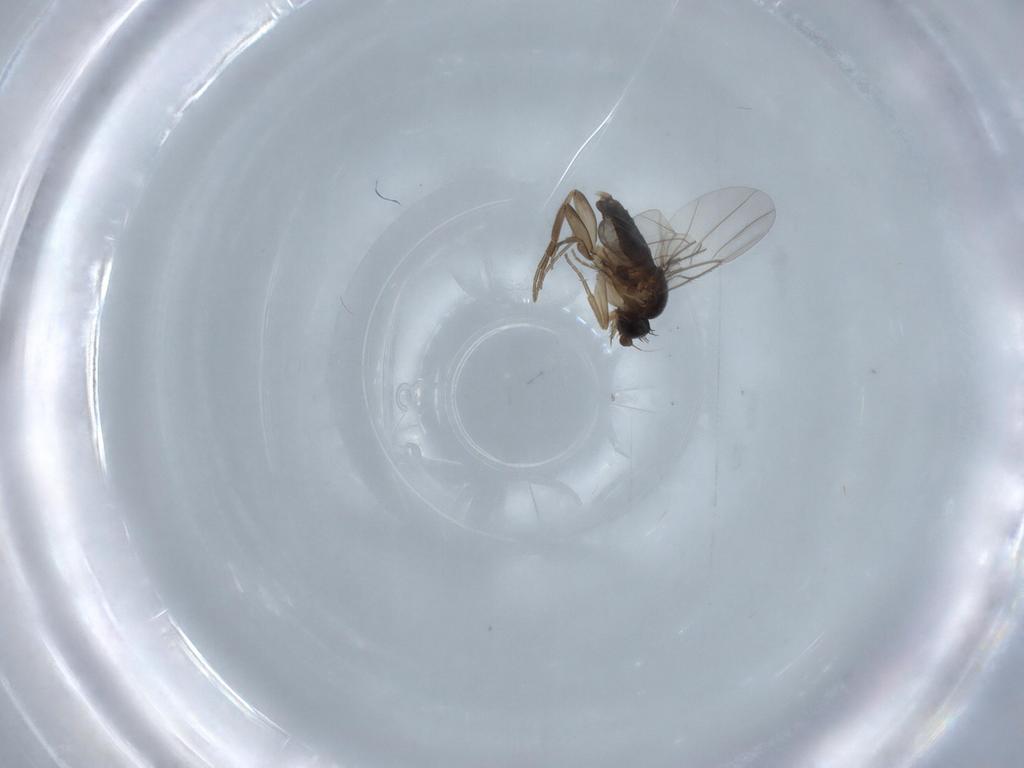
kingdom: Animalia
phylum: Arthropoda
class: Insecta
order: Diptera
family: Phoridae
